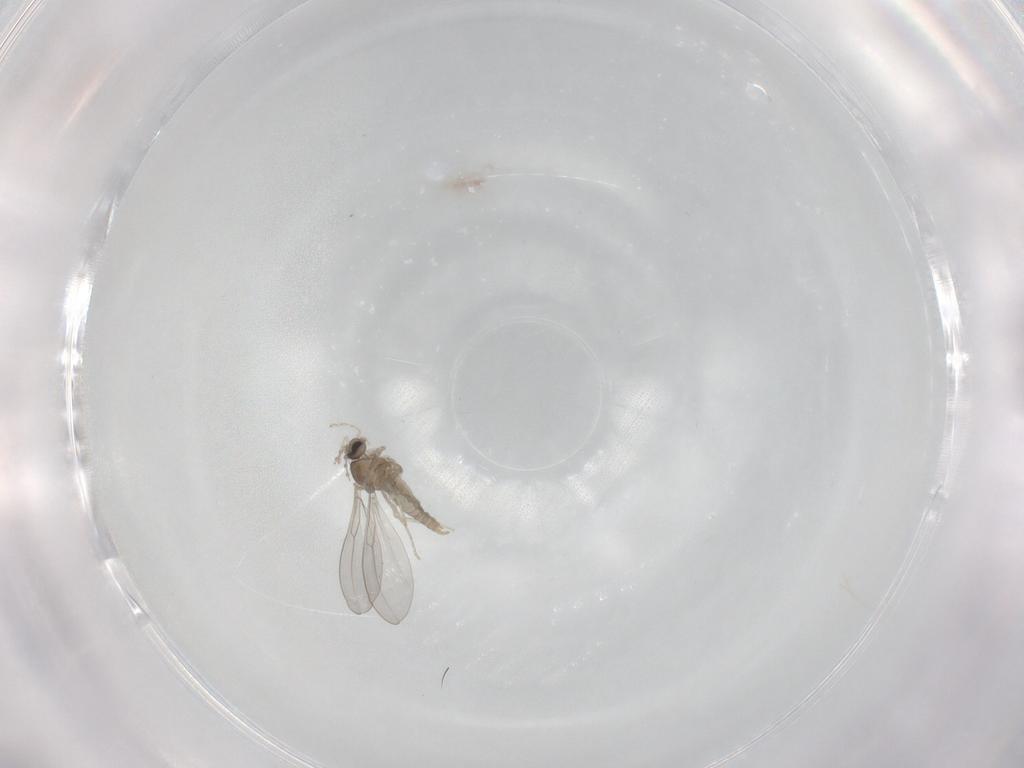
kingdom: Animalia
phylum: Arthropoda
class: Insecta
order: Diptera
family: Cecidomyiidae
